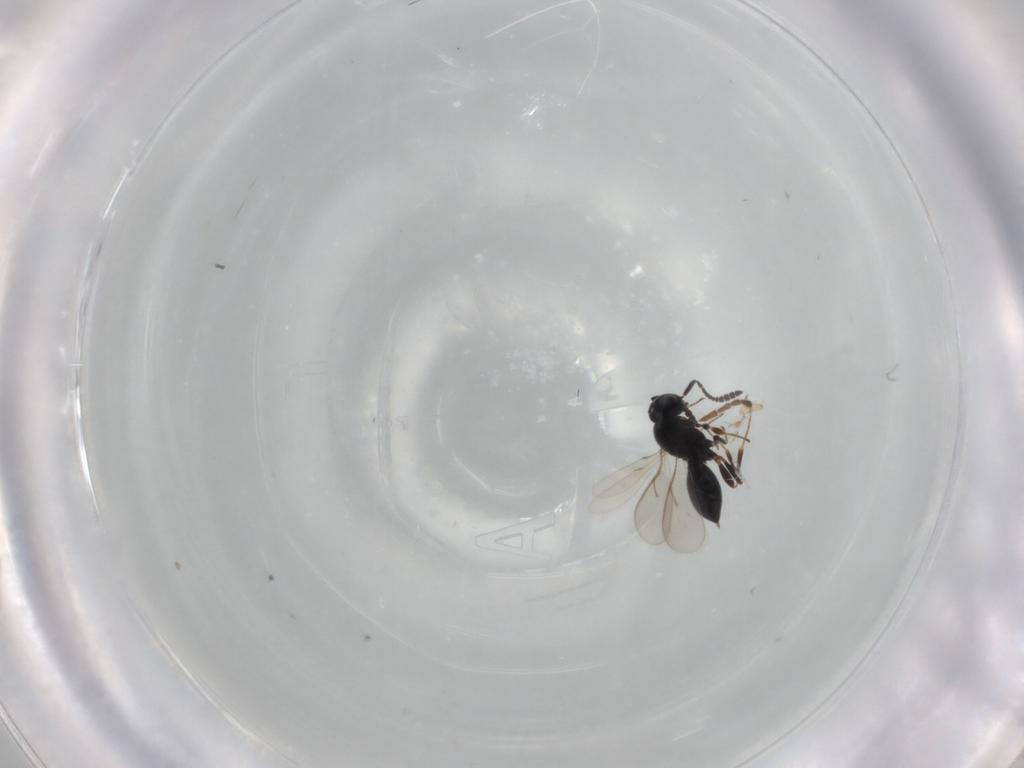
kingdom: Animalia
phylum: Arthropoda
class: Insecta
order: Hymenoptera
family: Scelionidae
